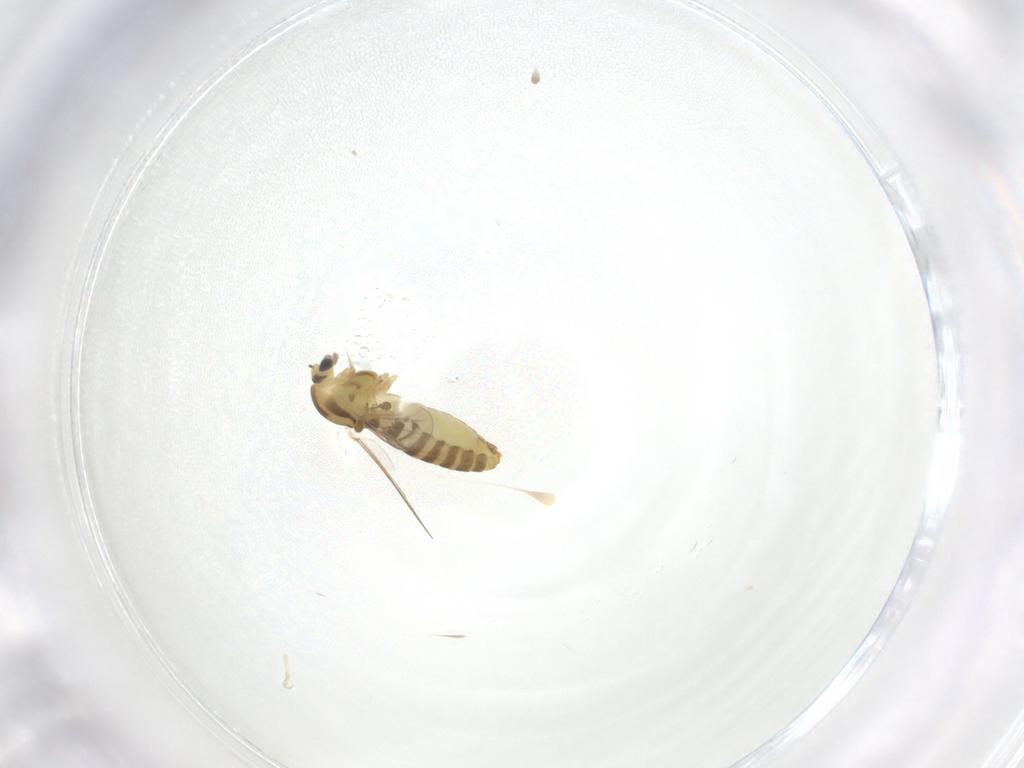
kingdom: Animalia
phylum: Arthropoda
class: Insecta
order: Diptera
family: Chironomidae
